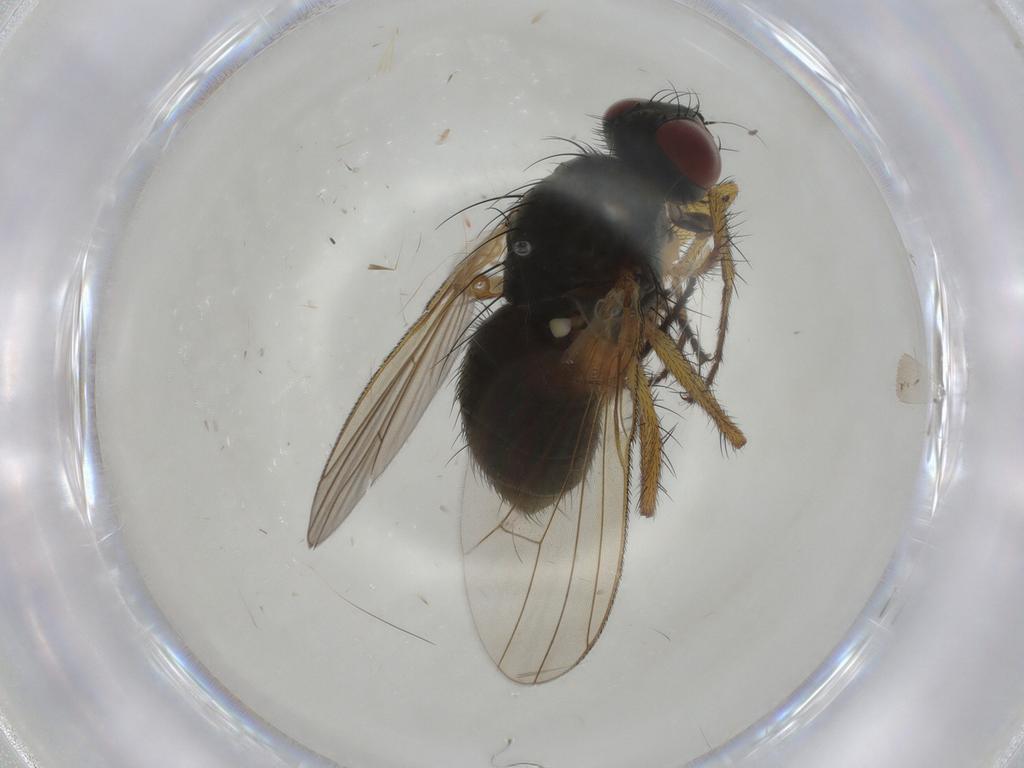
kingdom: Animalia
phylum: Arthropoda
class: Insecta
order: Diptera
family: Muscidae
